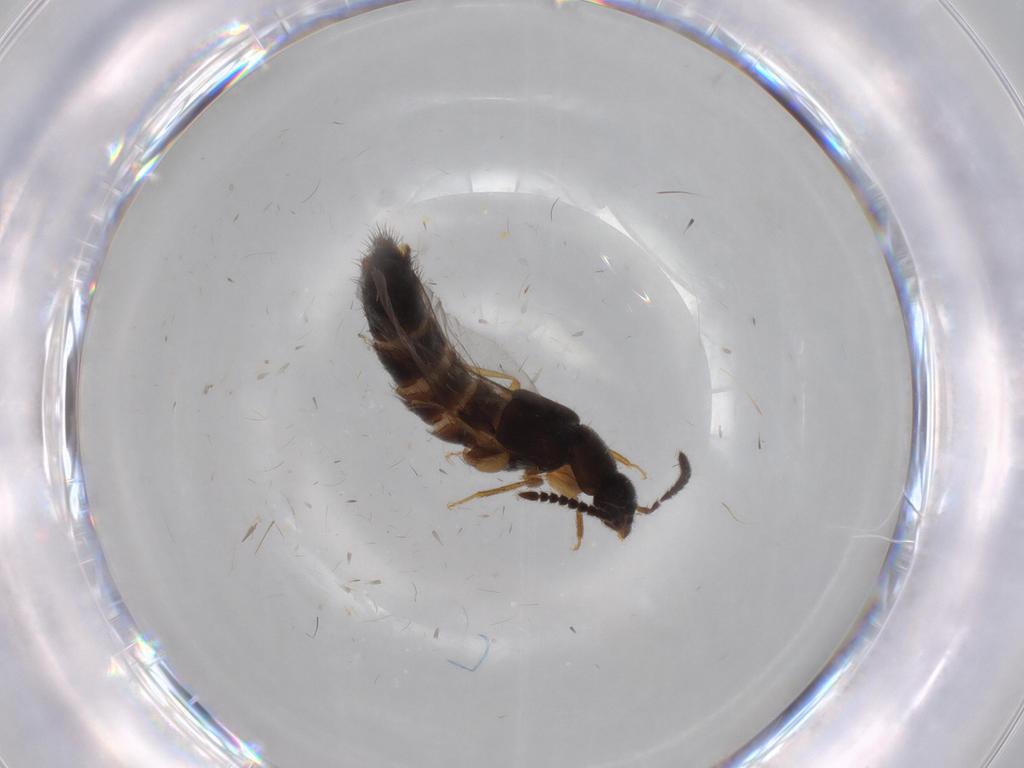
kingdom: Animalia
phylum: Arthropoda
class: Insecta
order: Coleoptera
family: Staphylinidae
